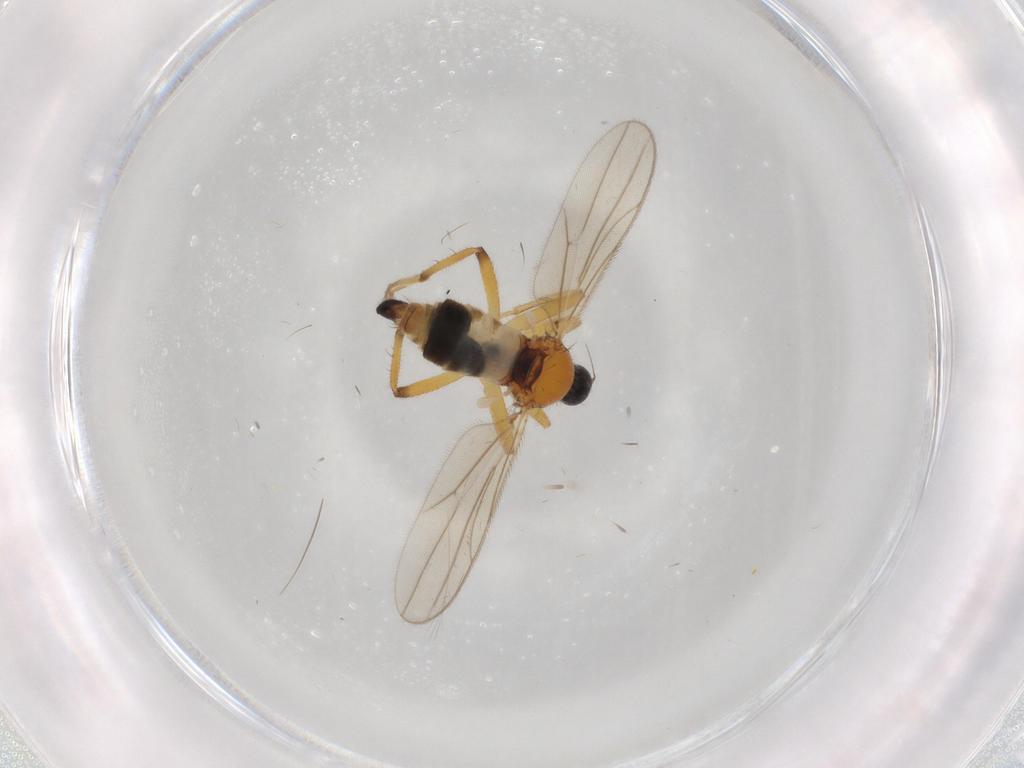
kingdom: Animalia
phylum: Arthropoda
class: Insecta
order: Diptera
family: Hybotidae
